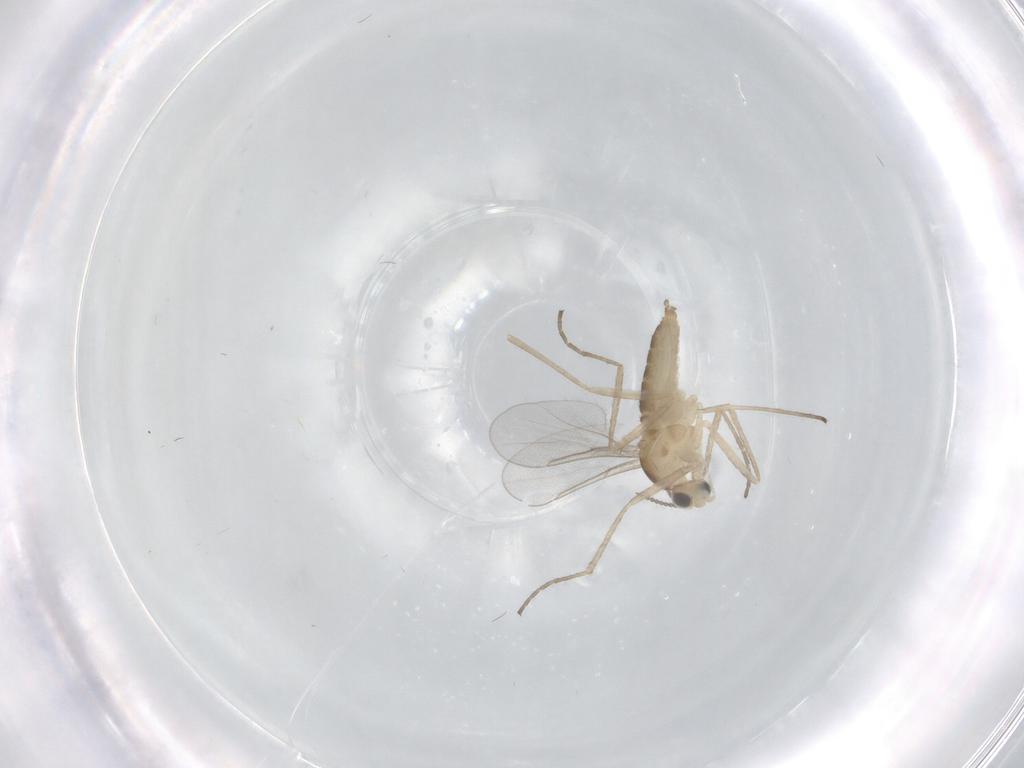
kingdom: Animalia
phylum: Arthropoda
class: Insecta
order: Diptera
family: Cecidomyiidae
